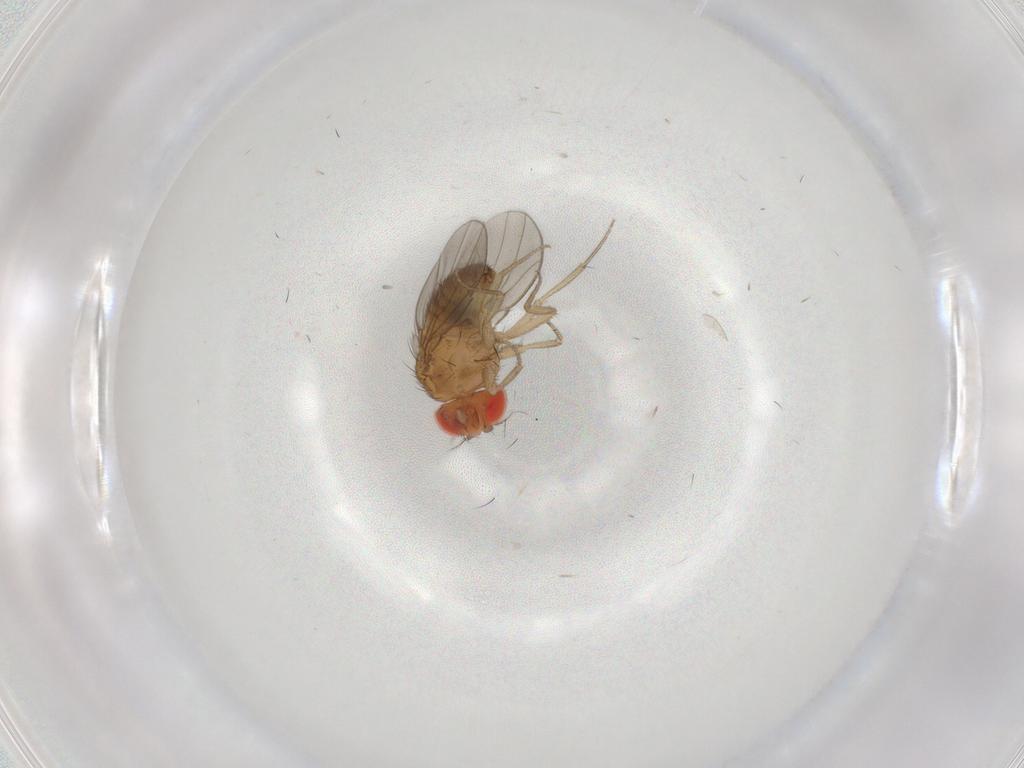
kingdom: Animalia
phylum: Arthropoda
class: Insecta
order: Diptera
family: Drosophilidae
